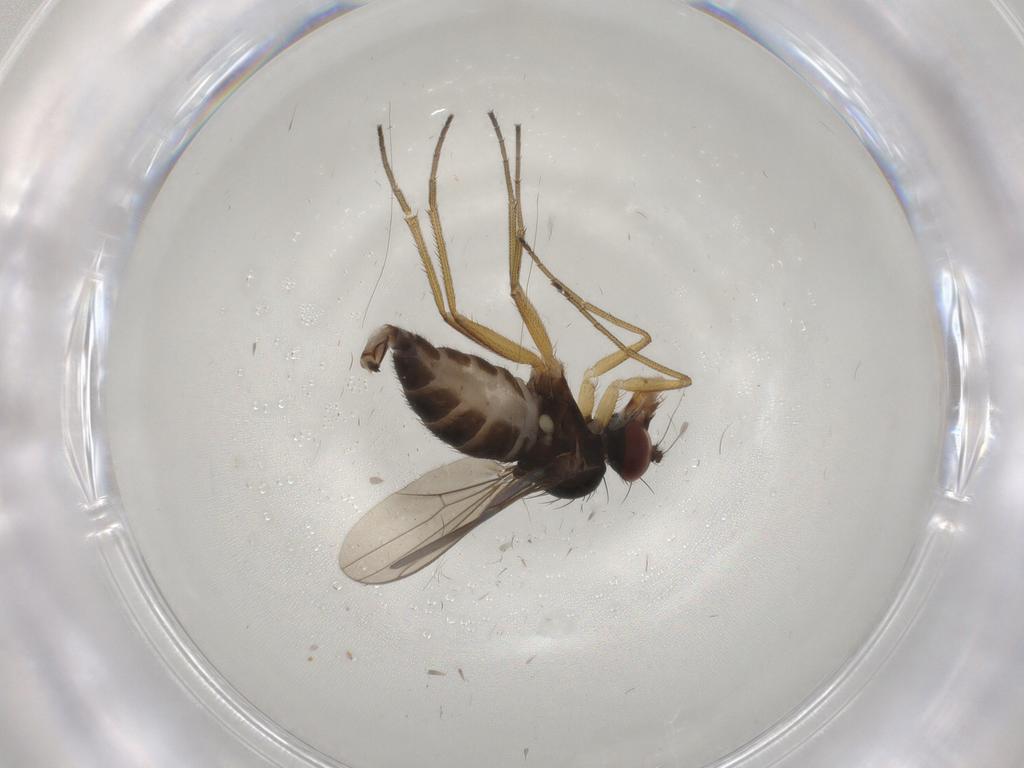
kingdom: Animalia
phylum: Arthropoda
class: Insecta
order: Diptera
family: Dolichopodidae
